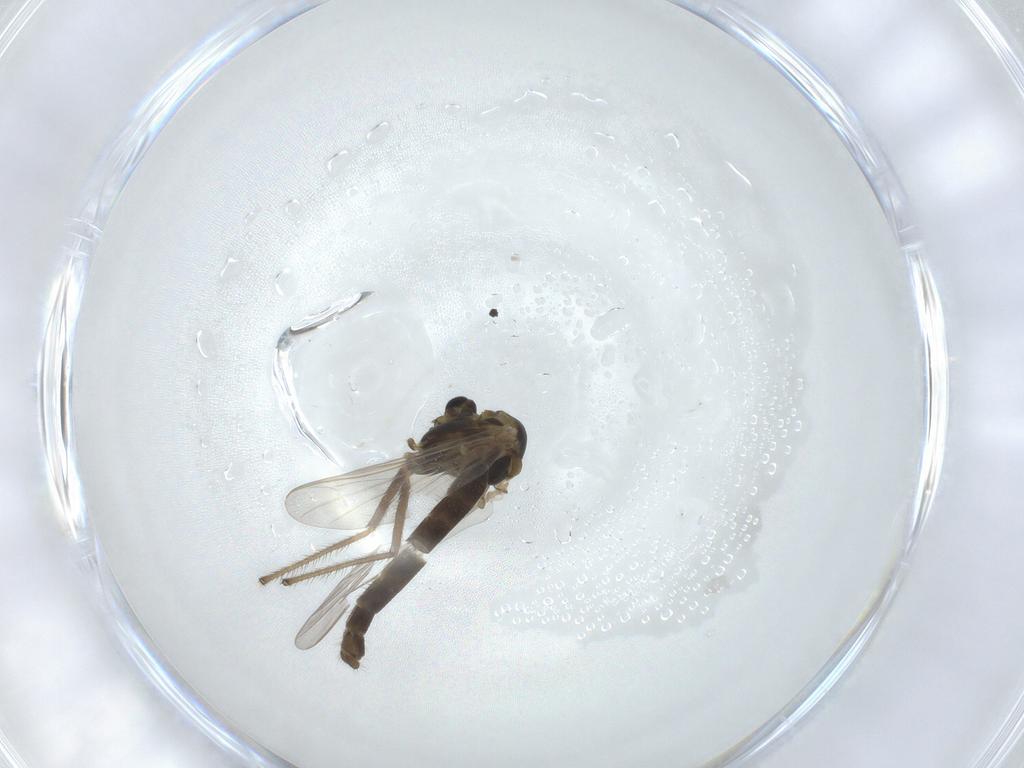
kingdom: Animalia
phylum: Arthropoda
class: Insecta
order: Diptera
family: Chironomidae
